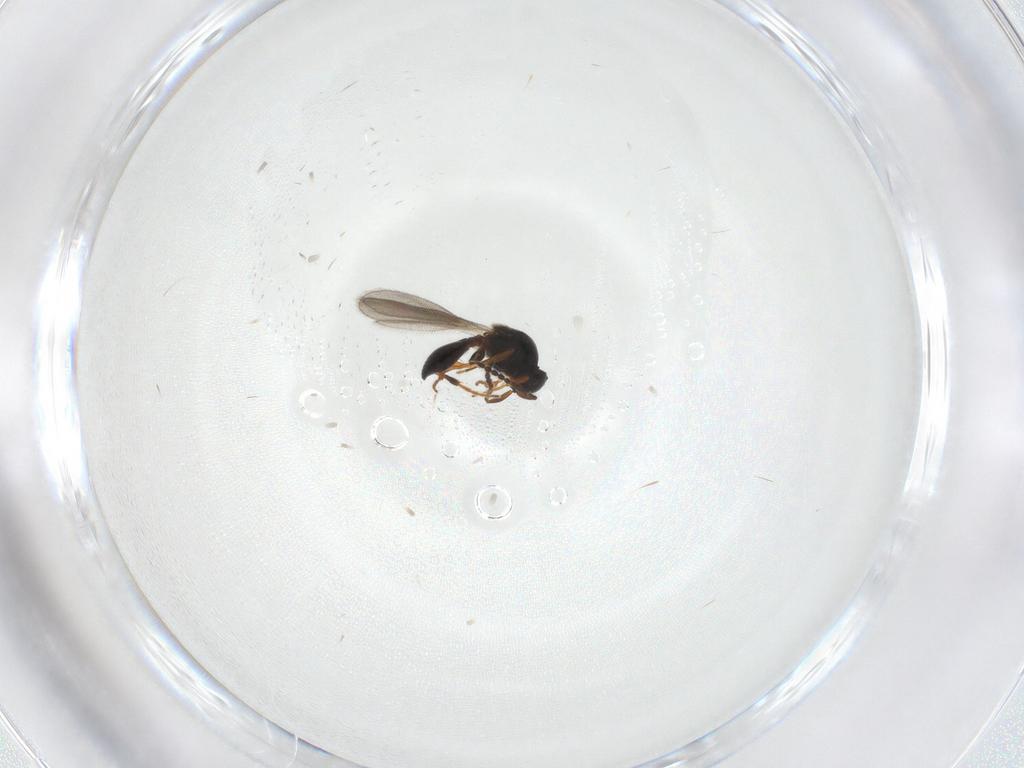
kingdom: Animalia
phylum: Arthropoda
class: Insecta
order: Hymenoptera
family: Platygastridae
